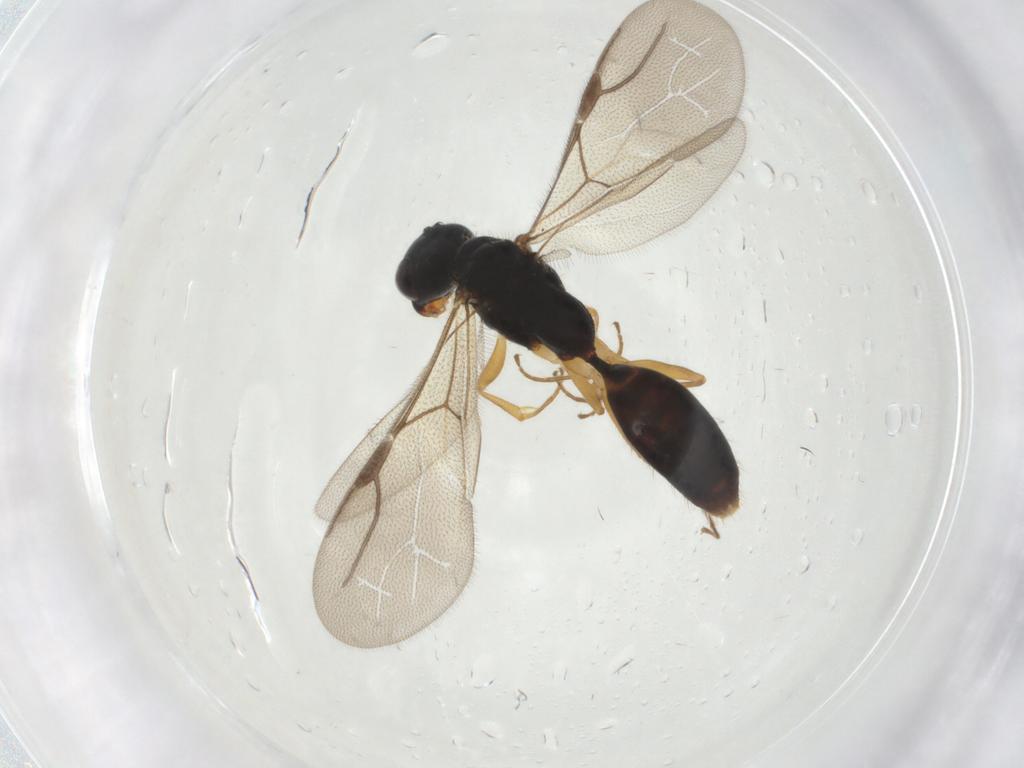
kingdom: Animalia
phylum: Arthropoda
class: Insecta
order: Hymenoptera
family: Bethylidae
